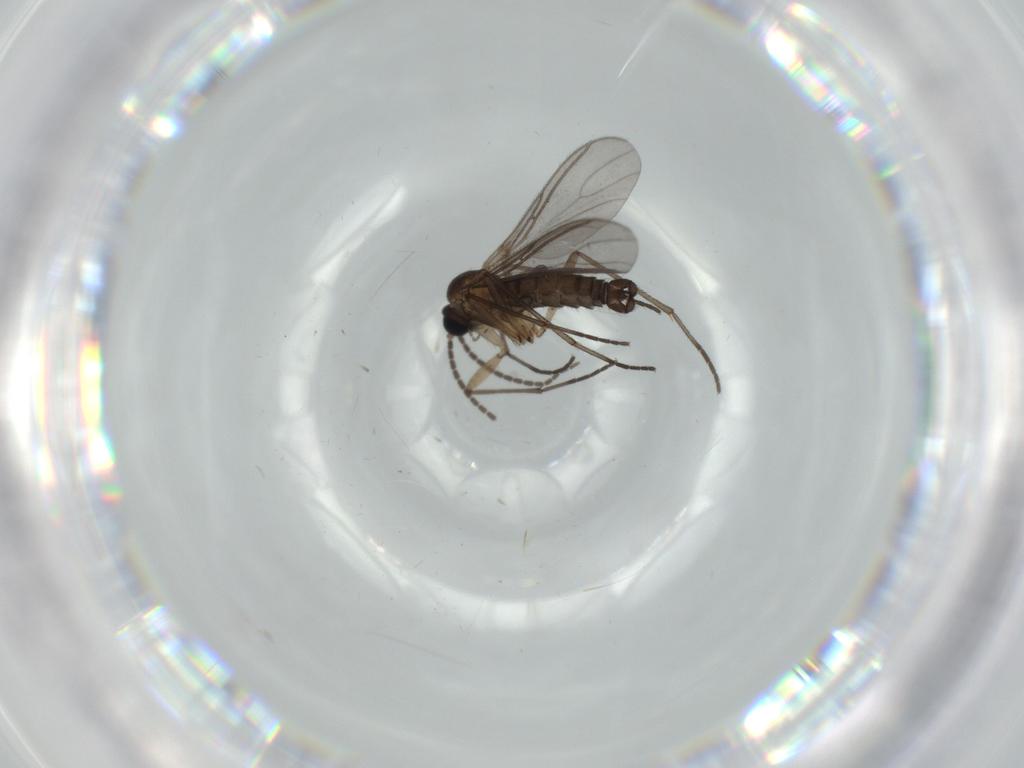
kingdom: Animalia
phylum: Arthropoda
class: Insecta
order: Diptera
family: Sciaridae
